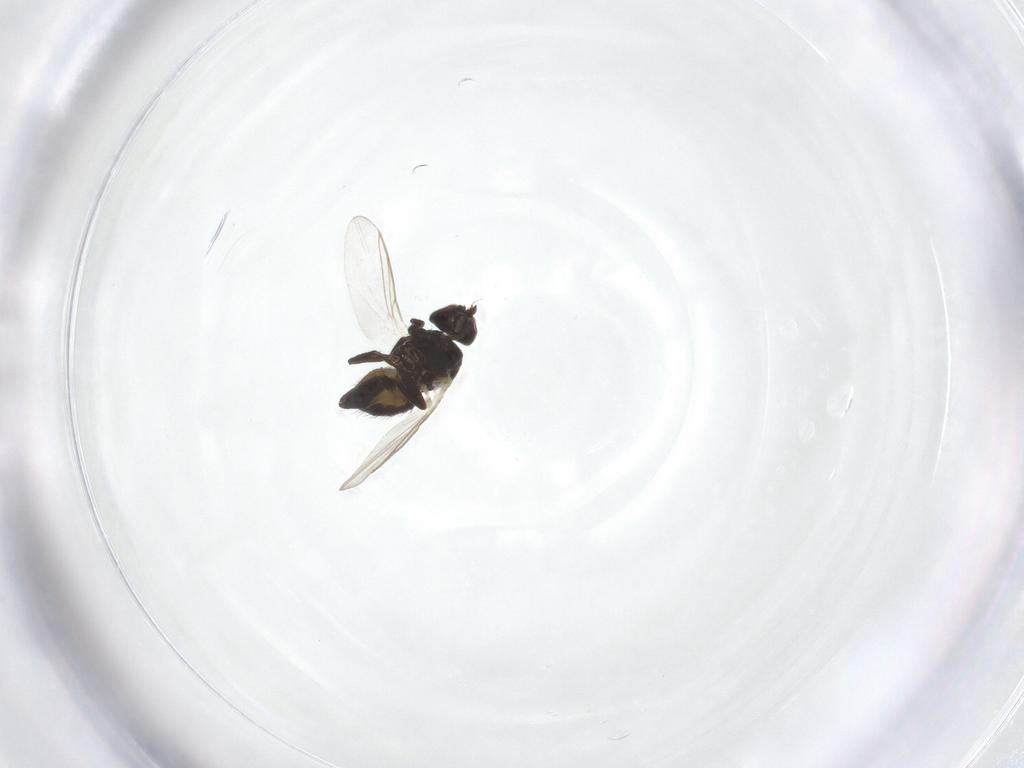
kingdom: Animalia
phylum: Arthropoda
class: Insecta
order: Diptera
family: Agromyzidae
